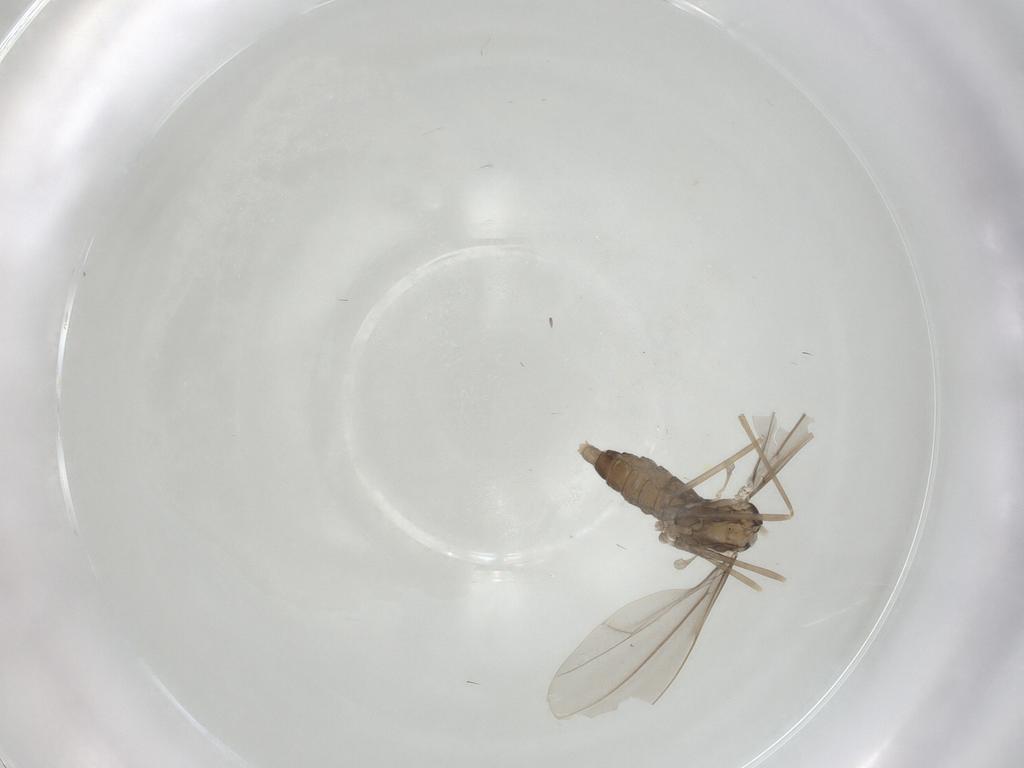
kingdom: Animalia
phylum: Arthropoda
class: Insecta
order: Diptera
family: Cecidomyiidae
